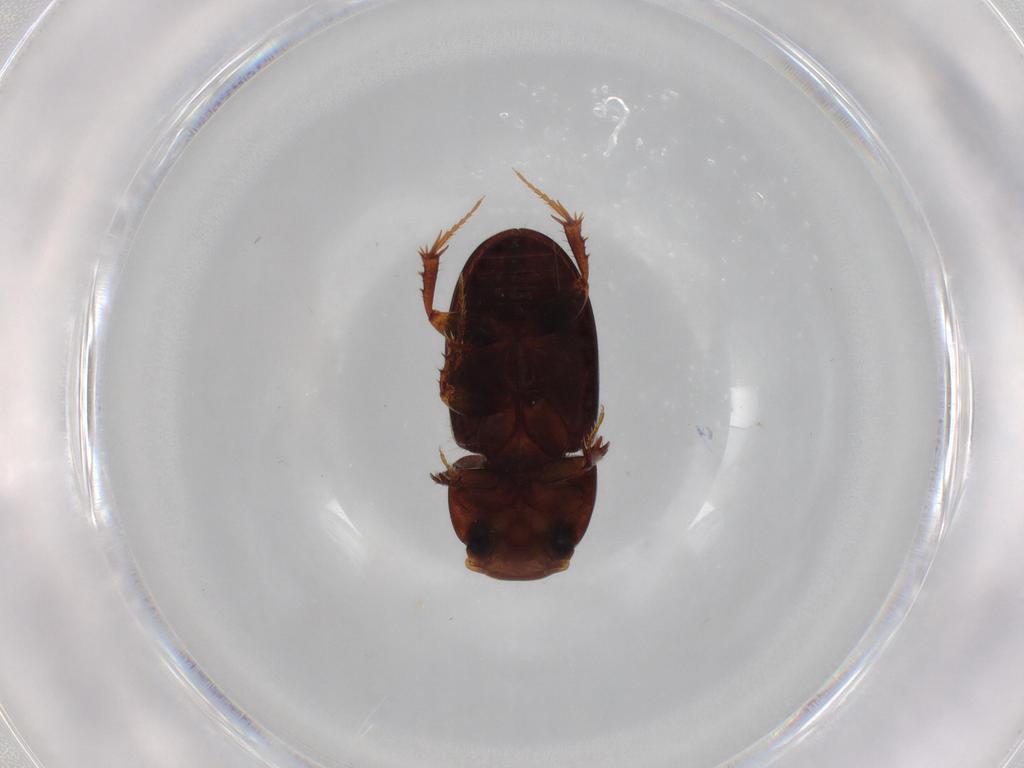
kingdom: Animalia
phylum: Arthropoda
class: Insecta
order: Coleoptera
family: Scarabaeidae
